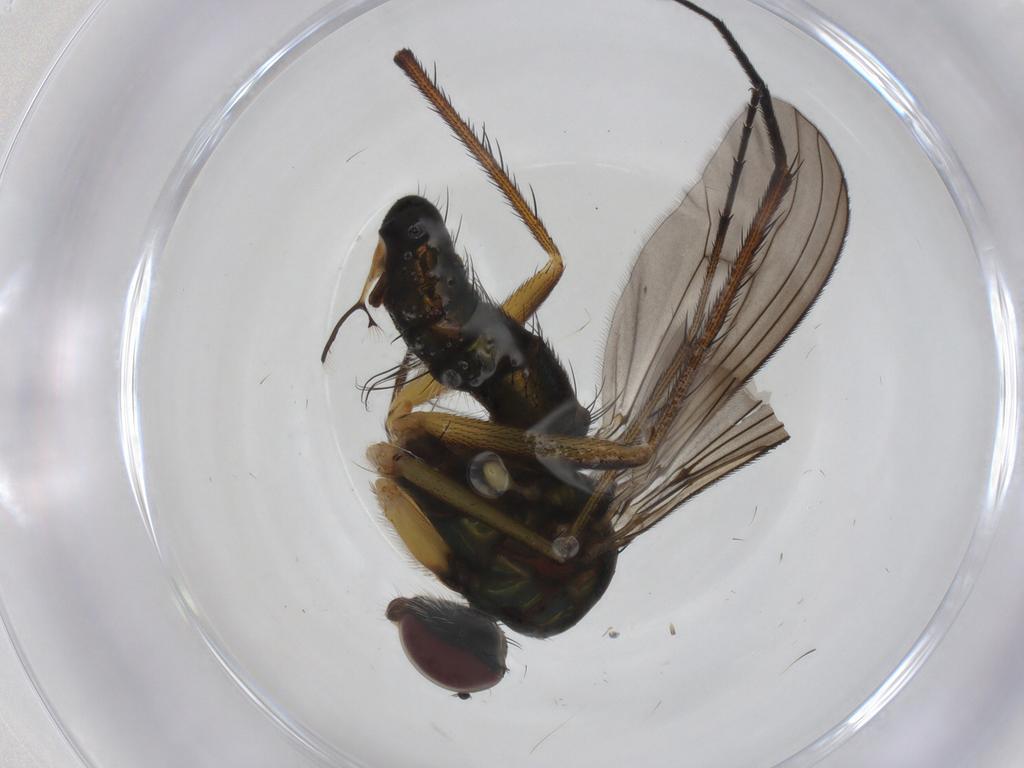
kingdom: Animalia
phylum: Arthropoda
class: Insecta
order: Diptera
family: Dolichopodidae
